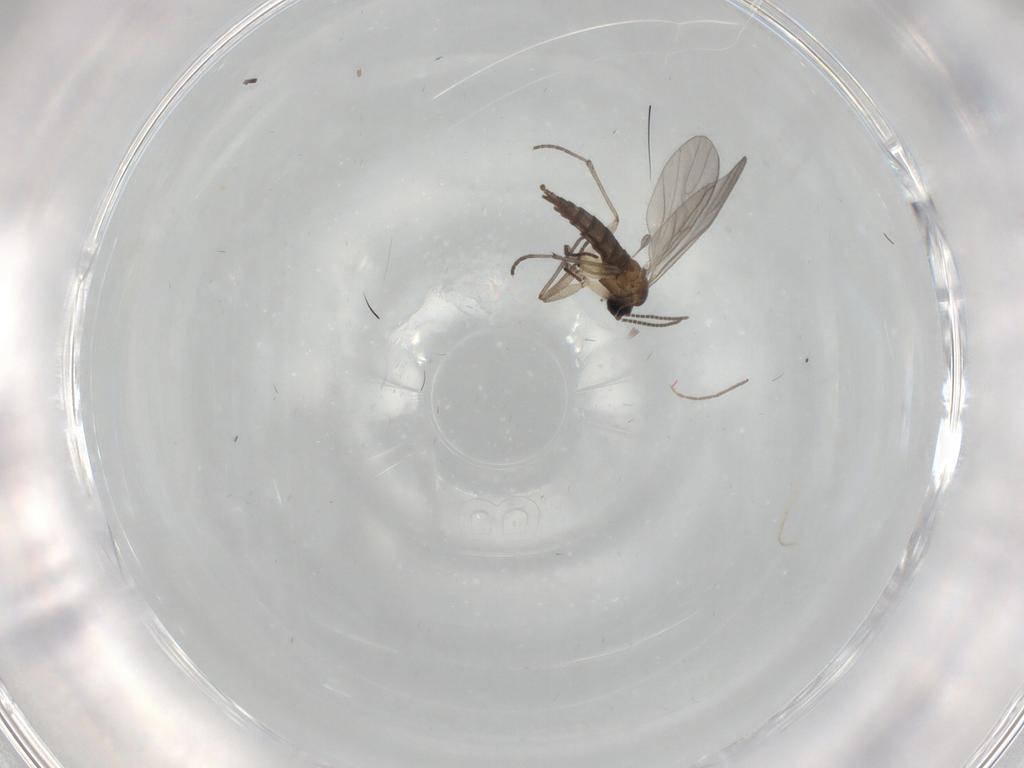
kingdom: Animalia
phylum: Arthropoda
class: Insecta
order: Diptera
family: Sciaridae
